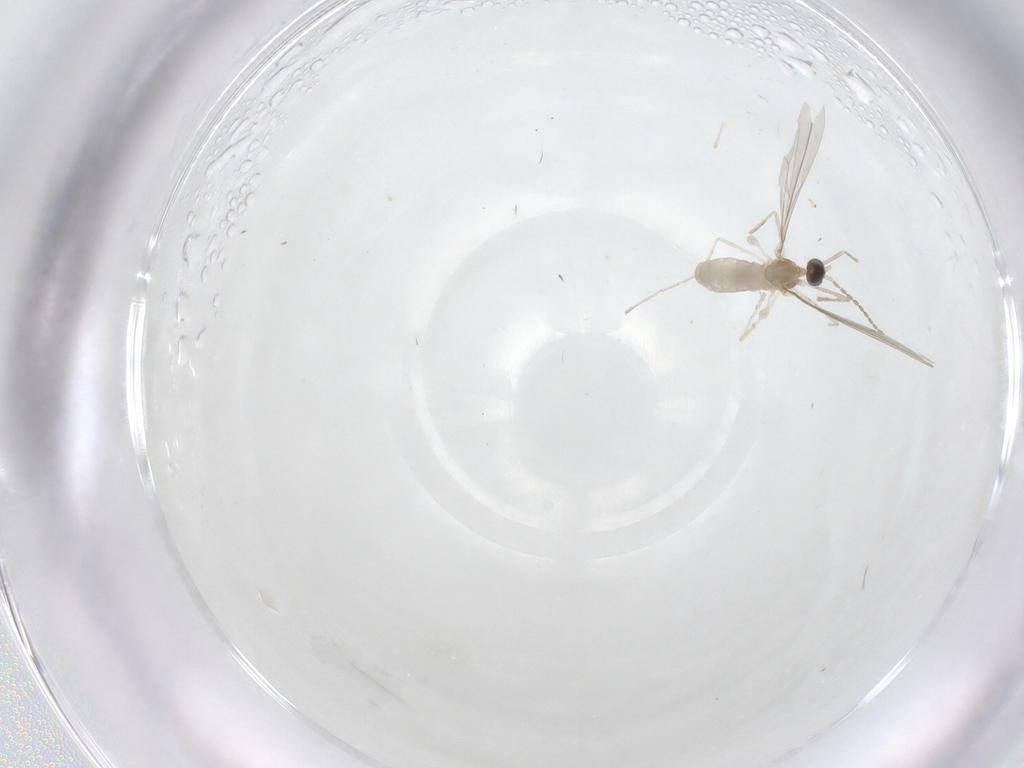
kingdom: Animalia
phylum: Arthropoda
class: Insecta
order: Diptera
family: Cecidomyiidae
